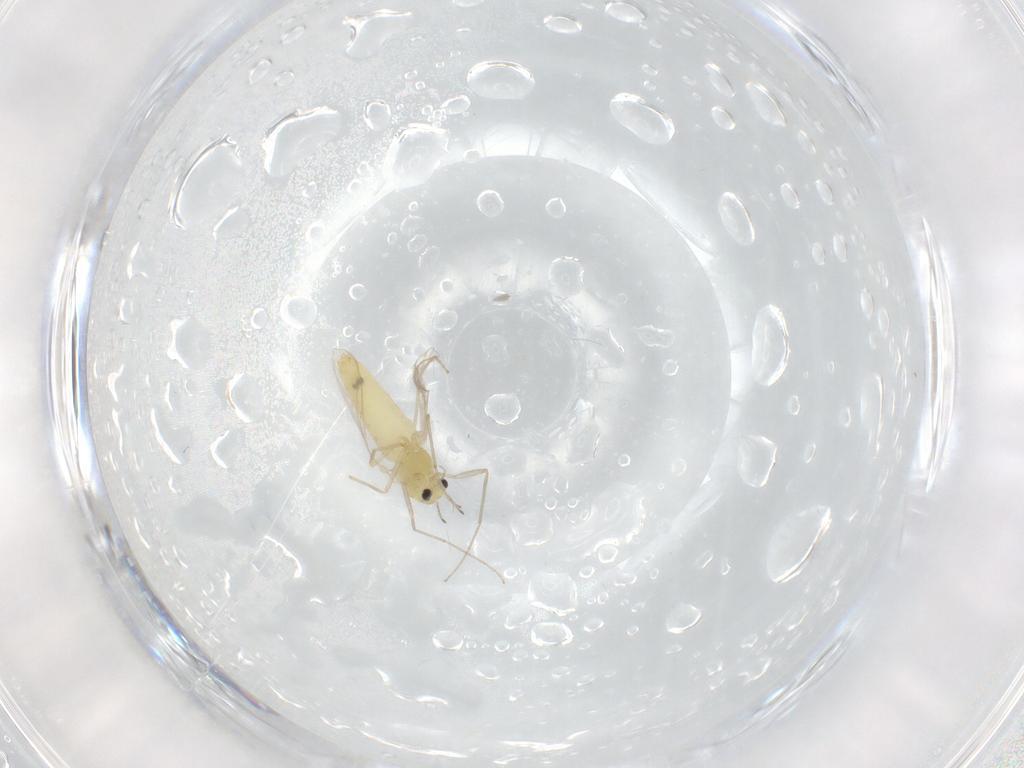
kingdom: Animalia
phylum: Arthropoda
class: Insecta
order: Diptera
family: Chironomidae
